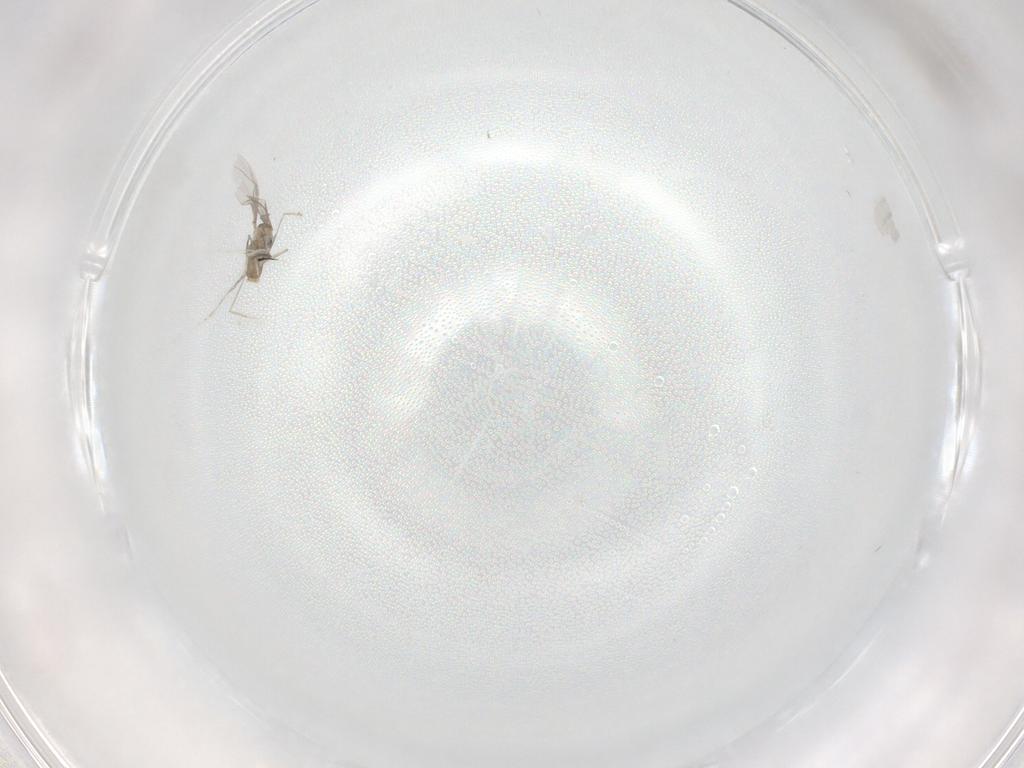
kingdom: Animalia
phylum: Arthropoda
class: Insecta
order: Diptera
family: Cecidomyiidae
